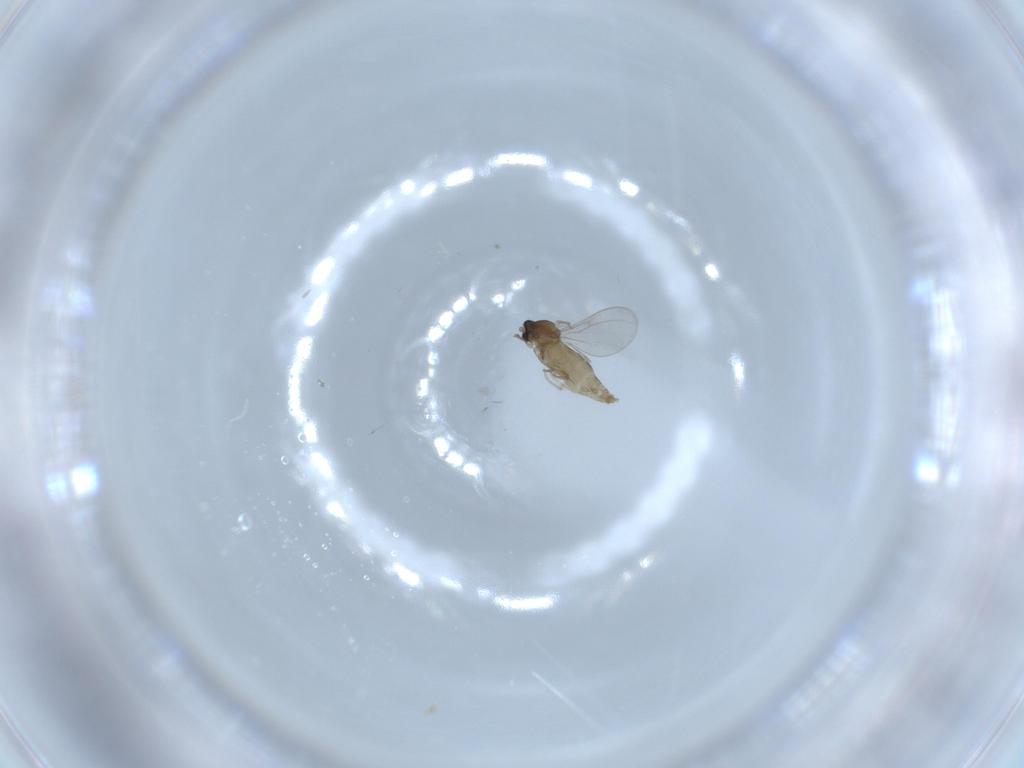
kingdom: Animalia
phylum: Arthropoda
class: Insecta
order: Diptera
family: Cecidomyiidae
